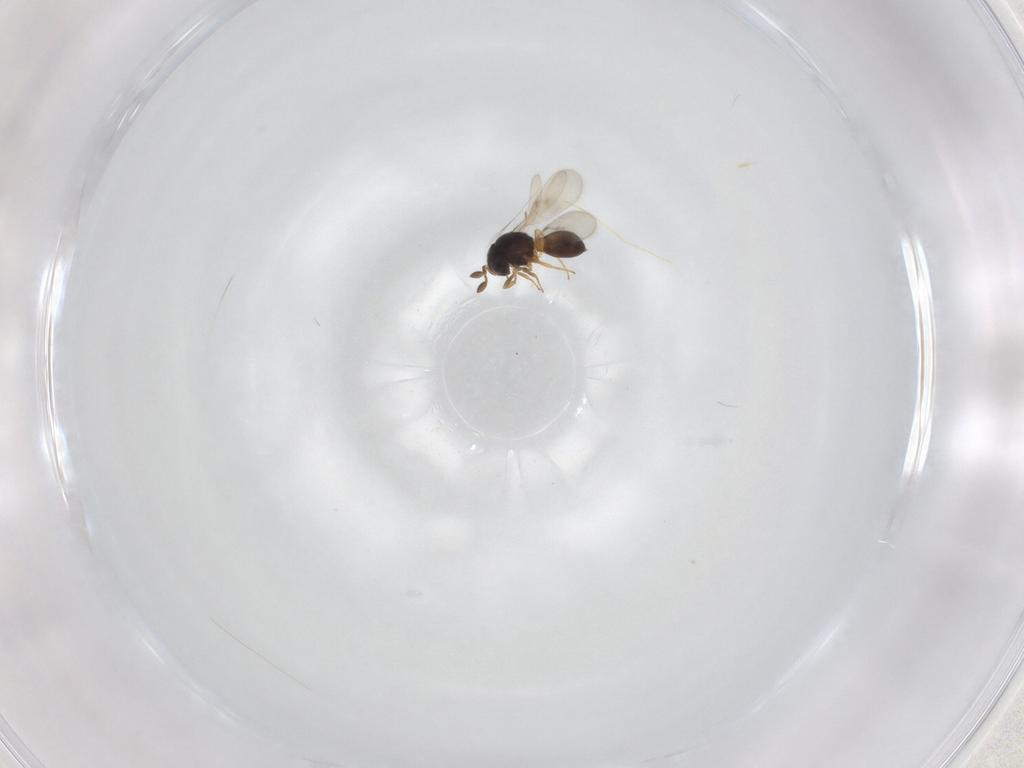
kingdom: Animalia
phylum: Arthropoda
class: Insecta
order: Hymenoptera
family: Scelionidae
